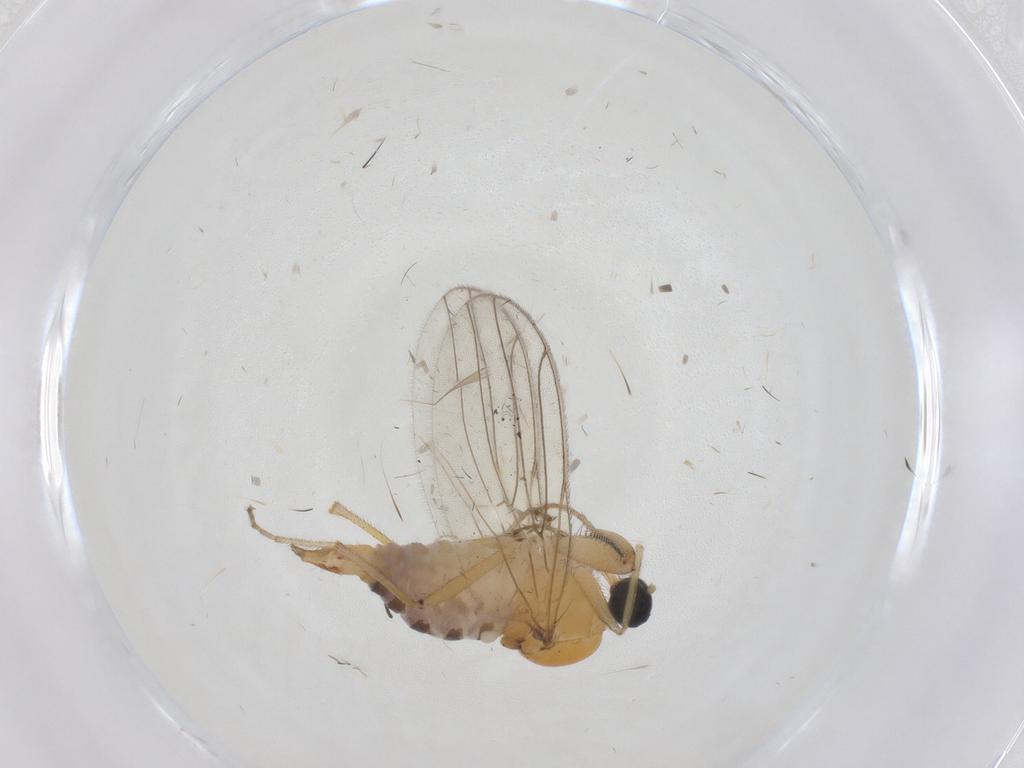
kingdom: Animalia
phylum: Arthropoda
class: Insecta
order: Diptera
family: Hybotidae
